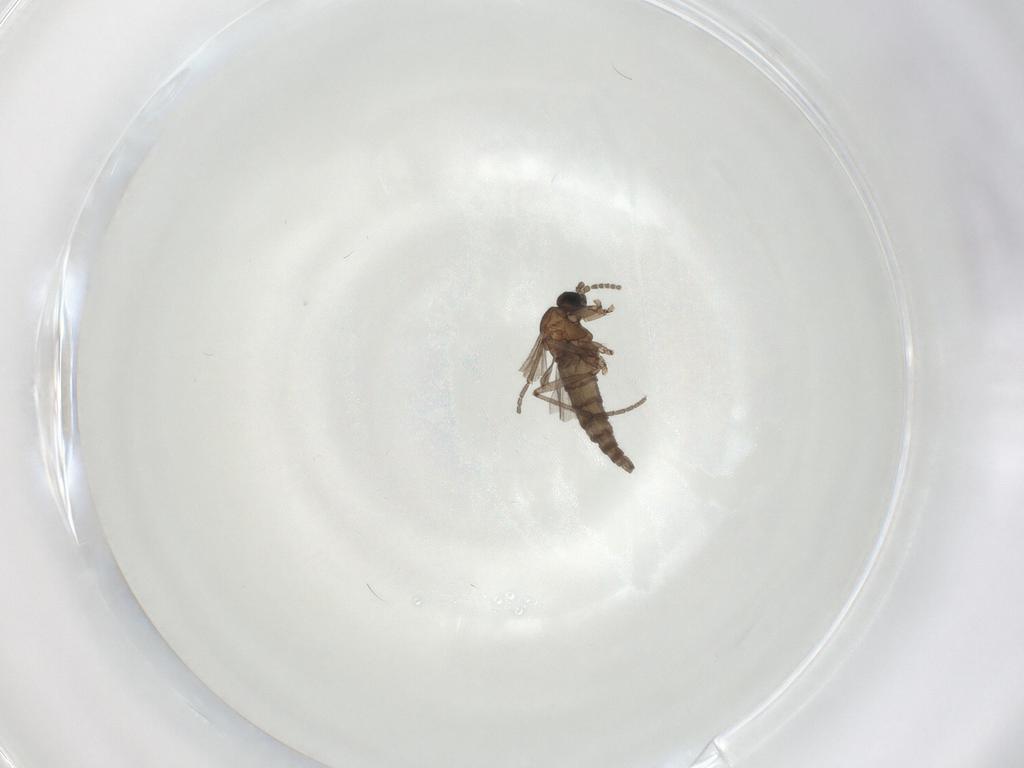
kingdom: Animalia
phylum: Arthropoda
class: Insecta
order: Diptera
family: Sciaridae
